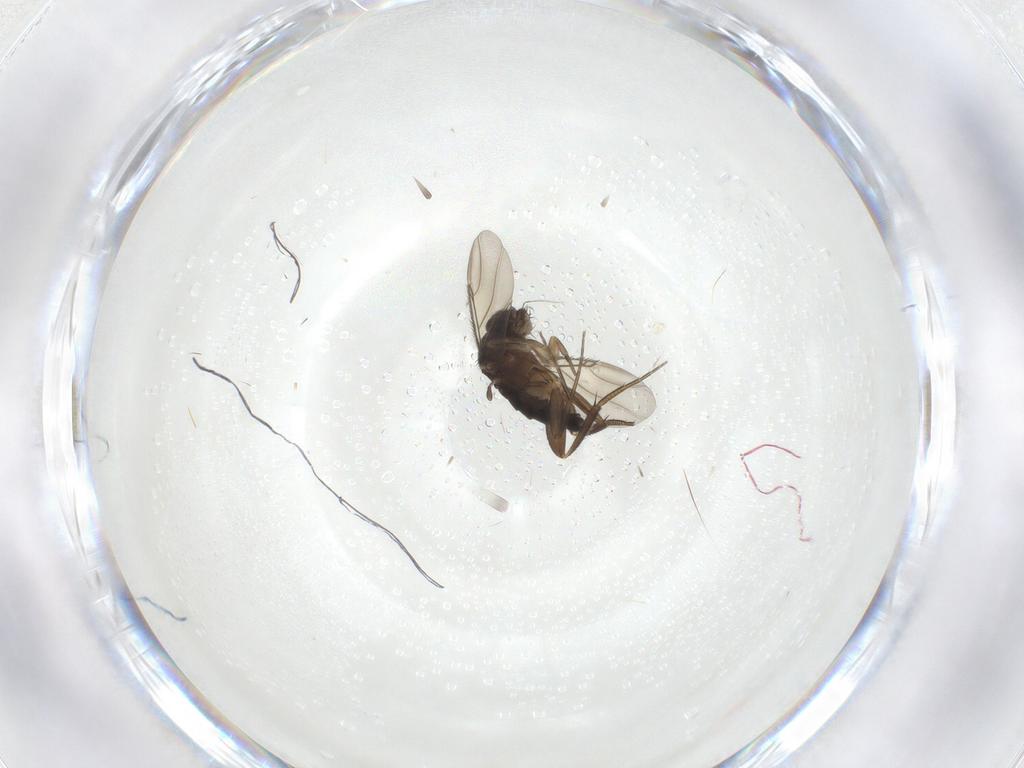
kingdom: Animalia
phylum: Arthropoda
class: Insecta
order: Diptera
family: Phoridae
